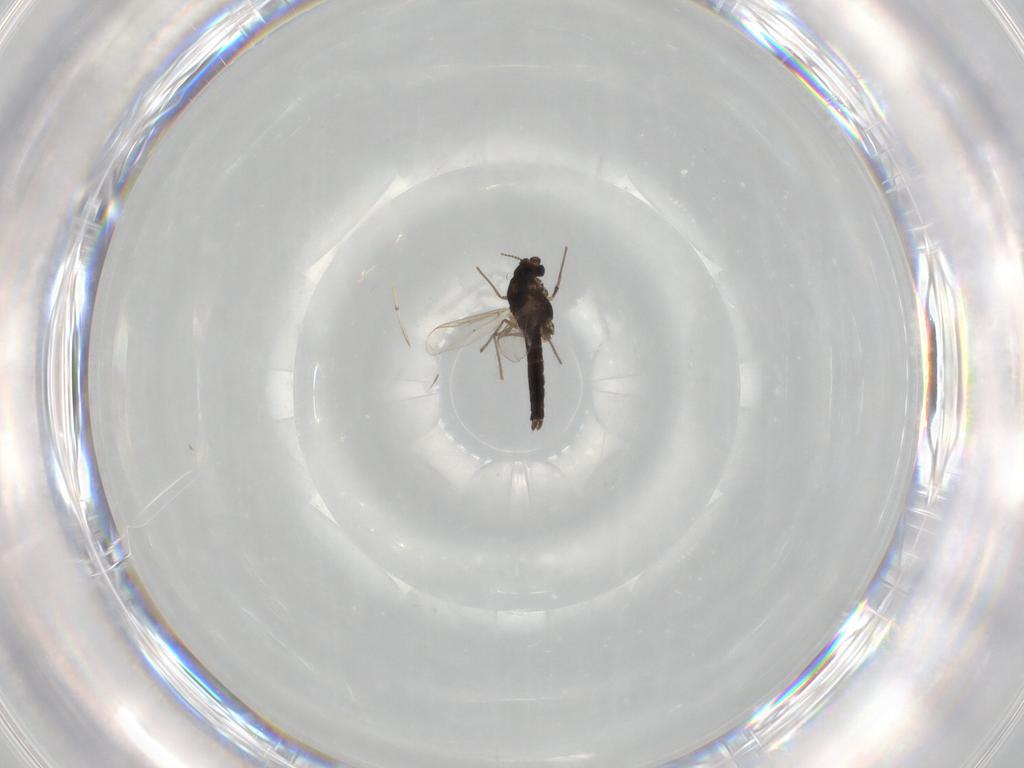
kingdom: Animalia
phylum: Arthropoda
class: Insecta
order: Diptera
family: Chironomidae
